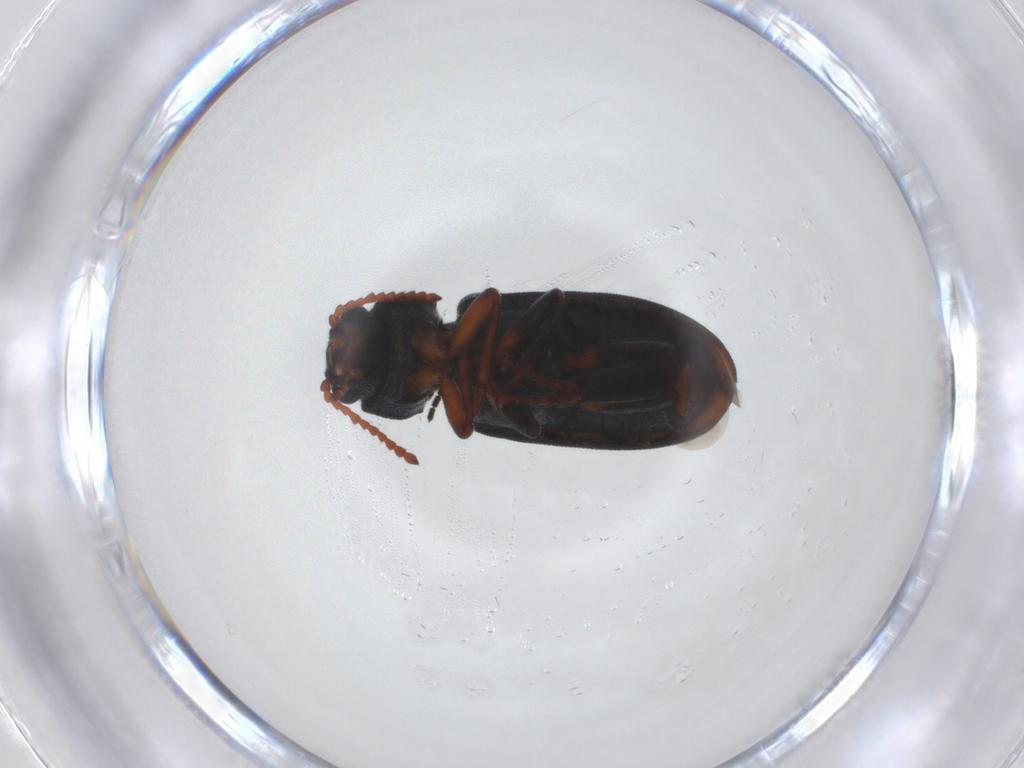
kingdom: Animalia
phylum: Arthropoda
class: Insecta
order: Coleoptera
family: Melyridae
